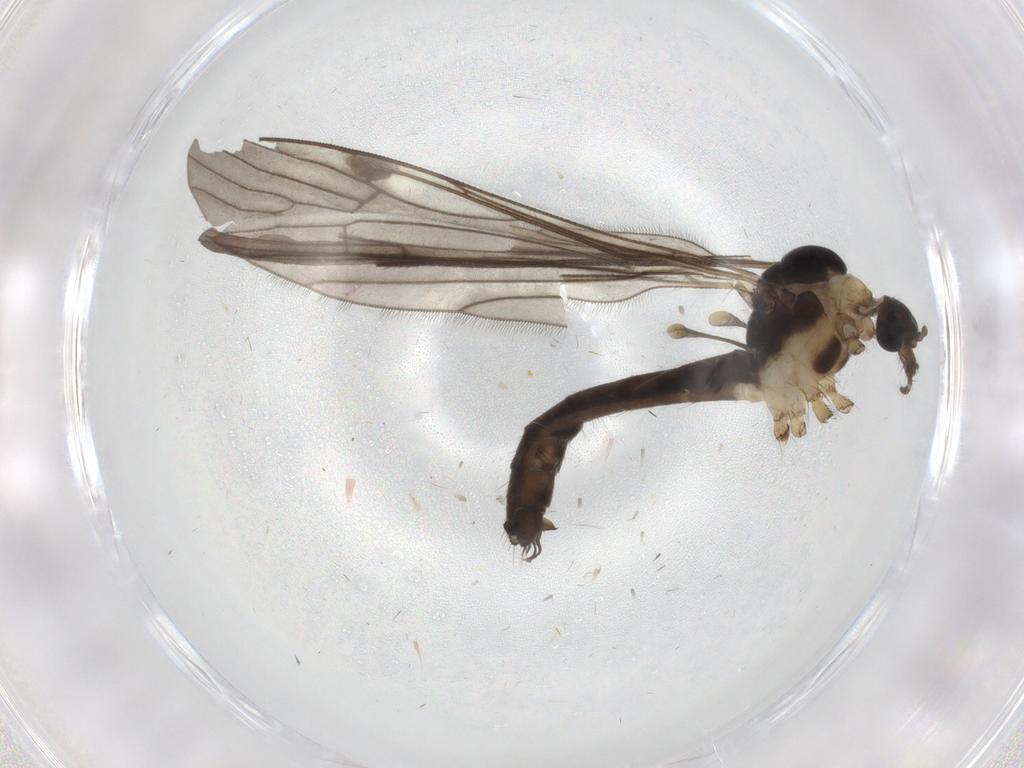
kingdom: Animalia
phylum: Arthropoda
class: Insecta
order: Diptera
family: Limoniidae
